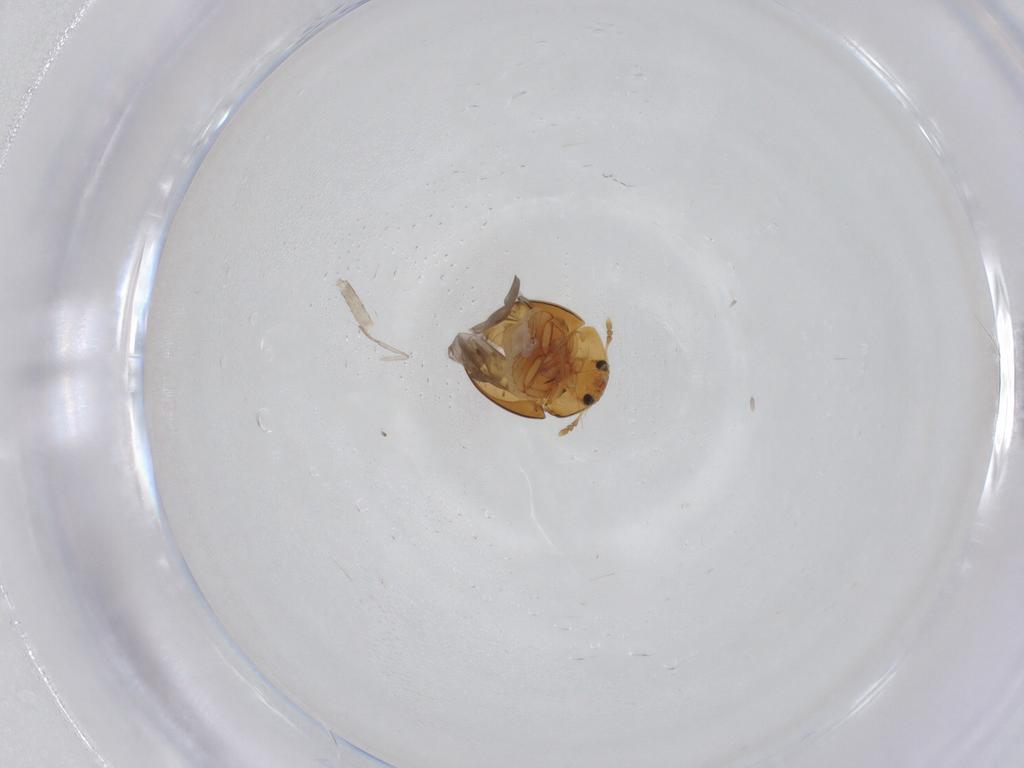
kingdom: Animalia
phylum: Arthropoda
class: Insecta
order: Coleoptera
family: Phalacridae
